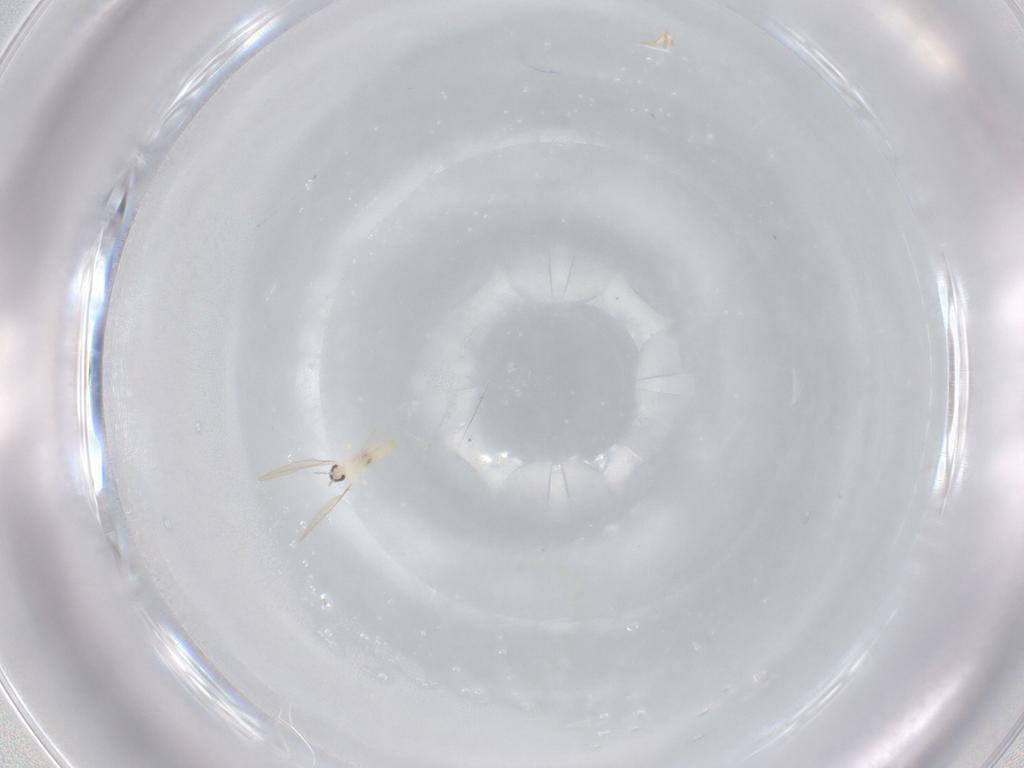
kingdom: Animalia
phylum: Arthropoda
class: Insecta
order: Diptera
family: Cecidomyiidae
